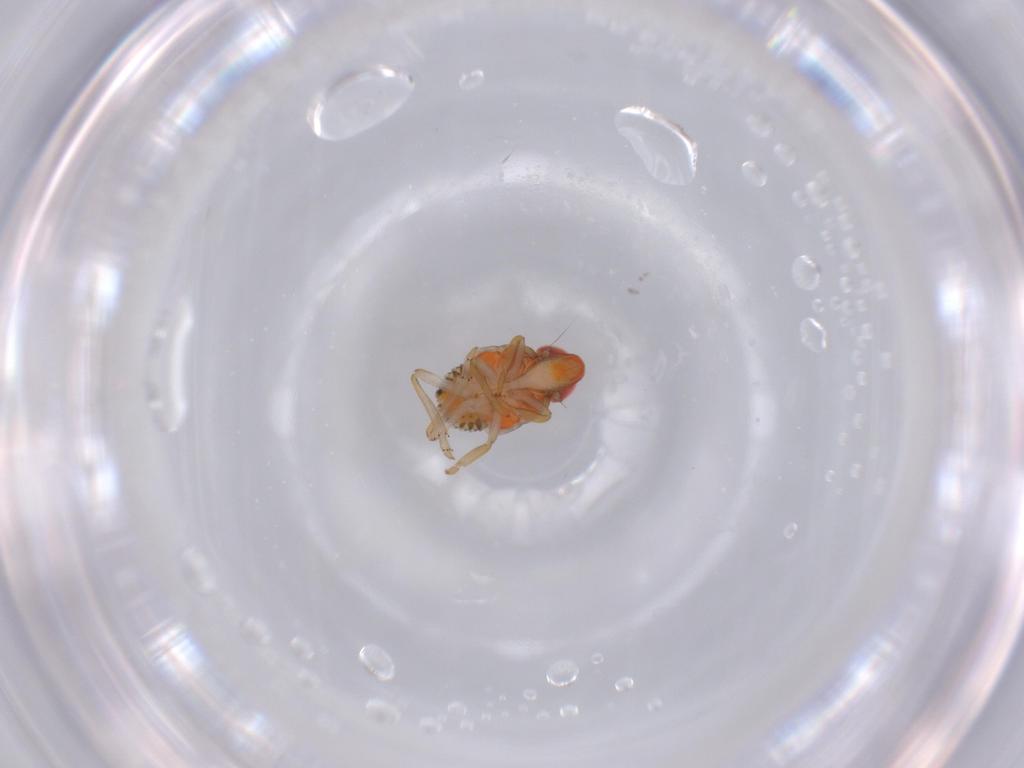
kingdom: Animalia
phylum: Arthropoda
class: Insecta
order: Hemiptera
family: Fulgoroidea_incertae_sedis
